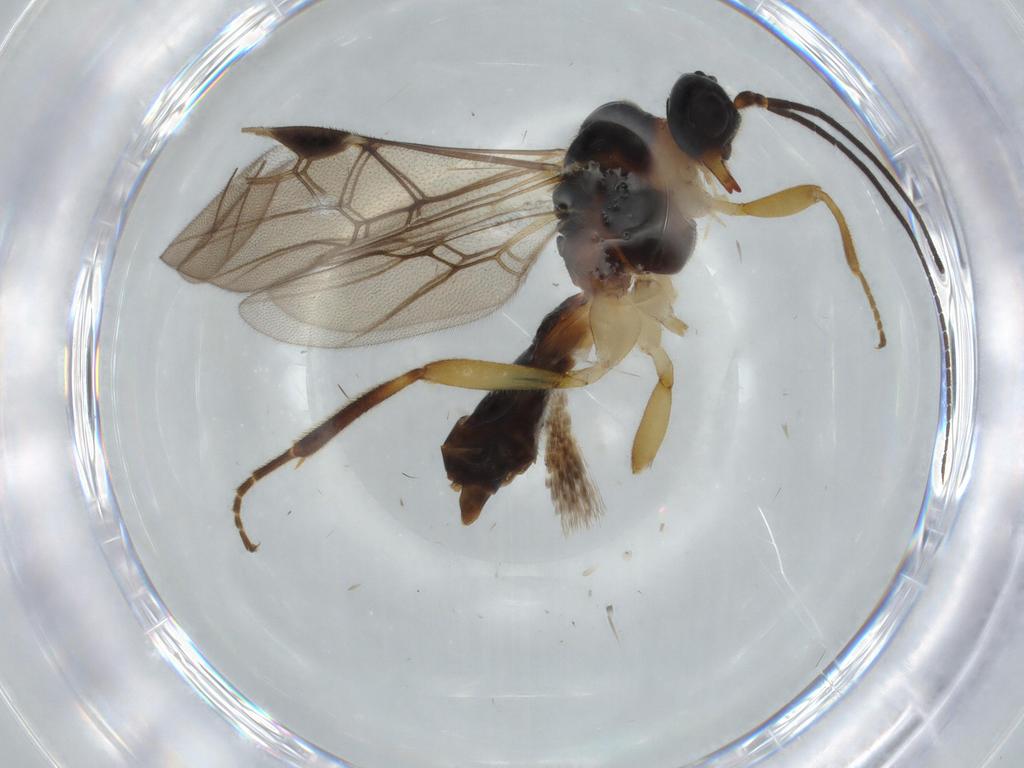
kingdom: Animalia
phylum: Arthropoda
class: Insecta
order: Hymenoptera
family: Braconidae
